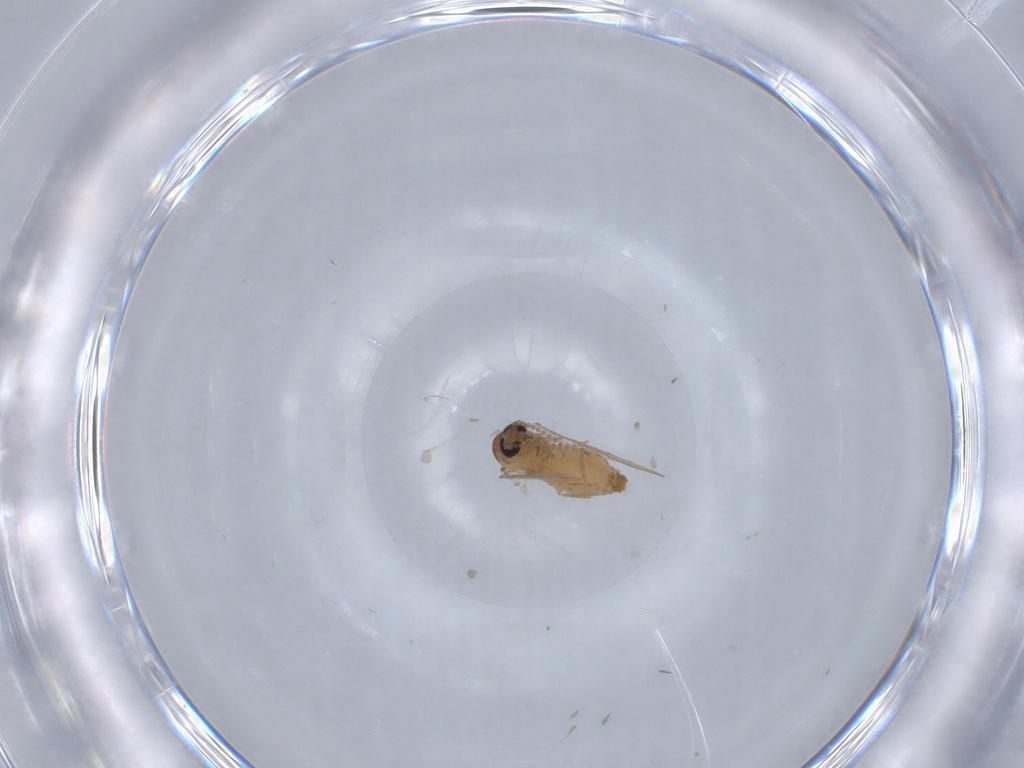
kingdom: Animalia
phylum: Arthropoda
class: Insecta
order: Diptera
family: Psychodidae
